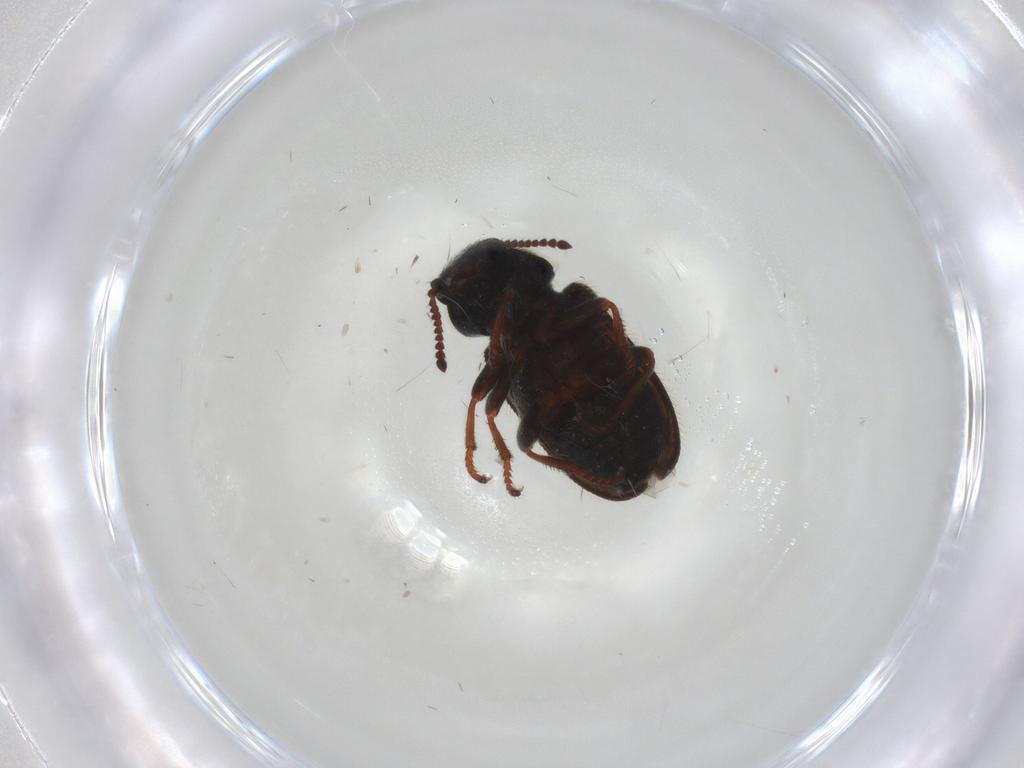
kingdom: Animalia
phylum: Arthropoda
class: Insecta
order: Coleoptera
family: Melyridae
